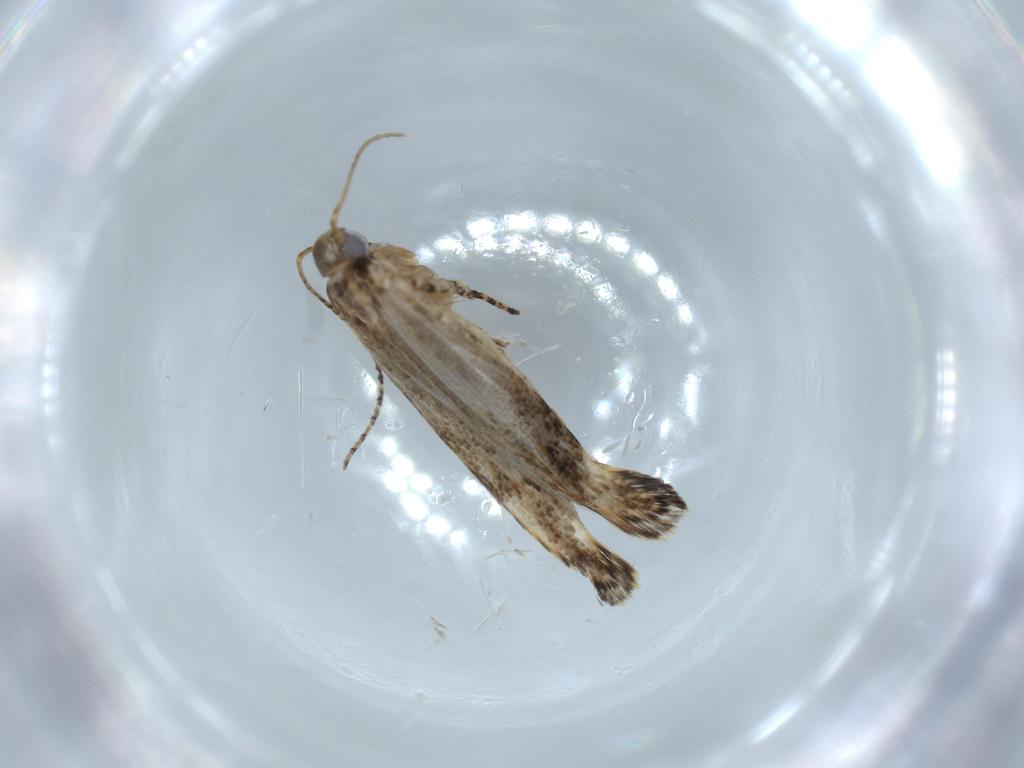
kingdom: Animalia
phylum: Arthropoda
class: Insecta
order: Lepidoptera
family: Gelechiidae
